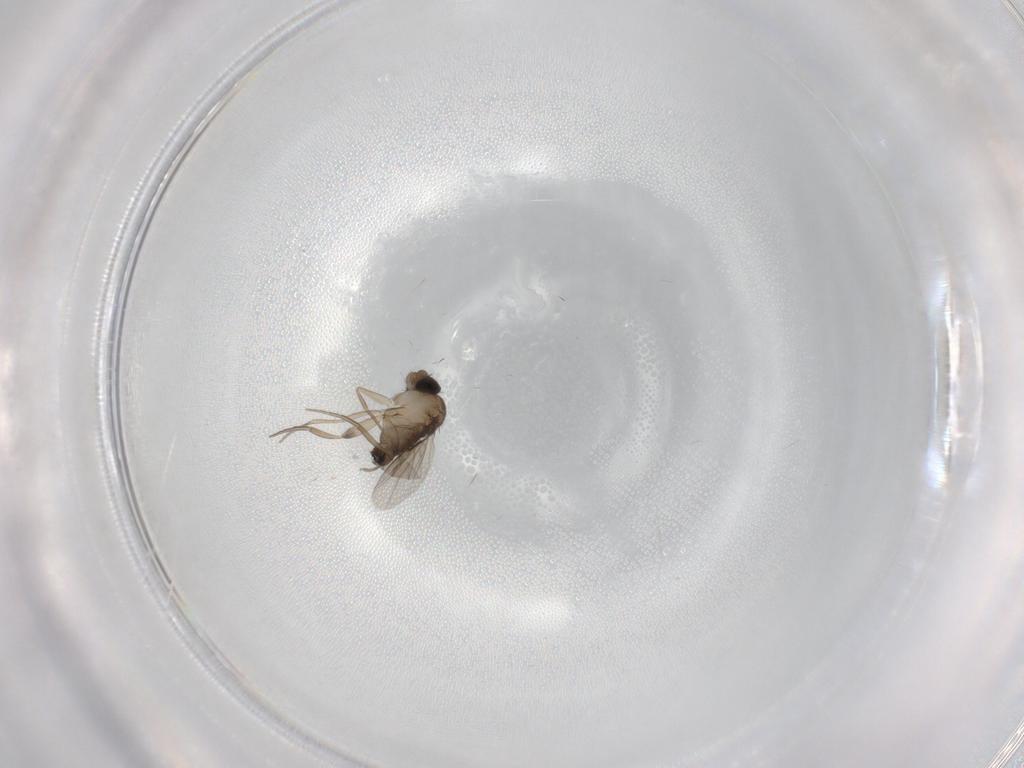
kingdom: Animalia
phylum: Arthropoda
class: Insecta
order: Diptera
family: Phoridae
